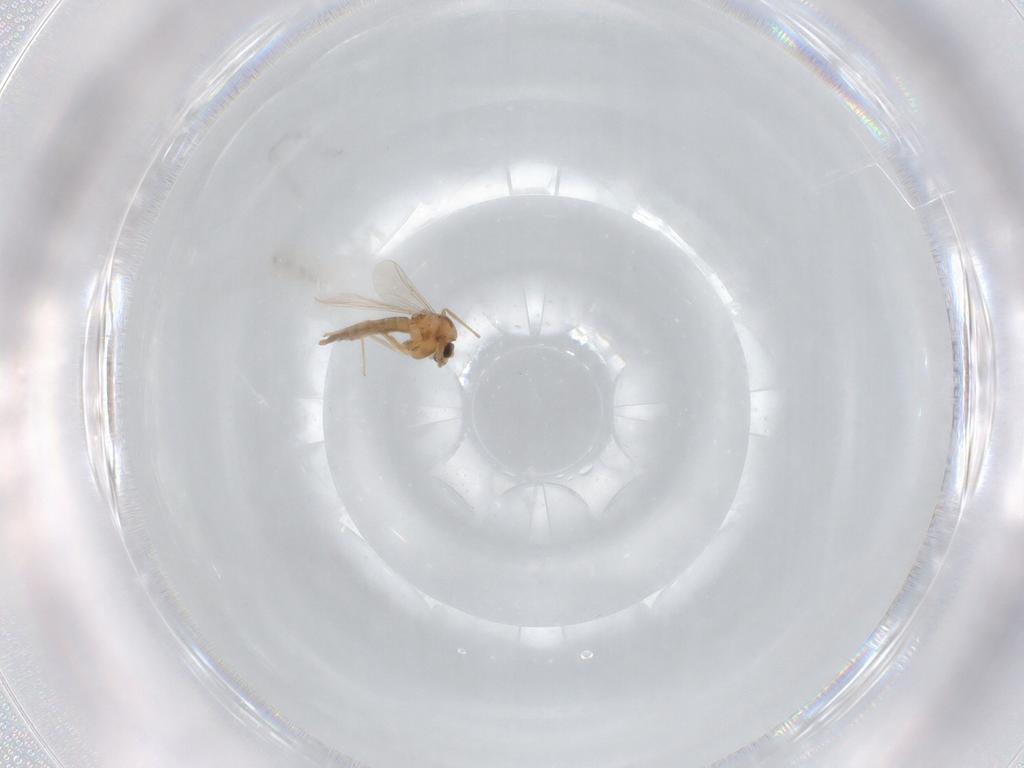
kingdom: Animalia
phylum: Arthropoda
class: Insecta
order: Diptera
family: Chironomidae
